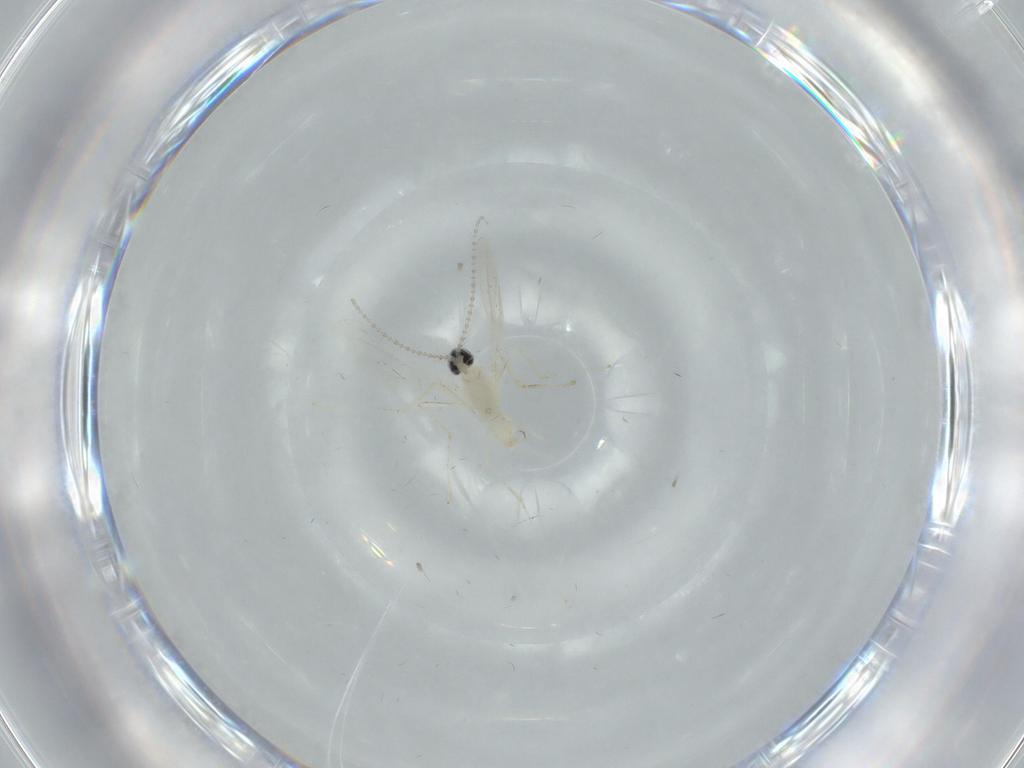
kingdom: Animalia
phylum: Arthropoda
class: Insecta
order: Diptera
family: Cecidomyiidae
